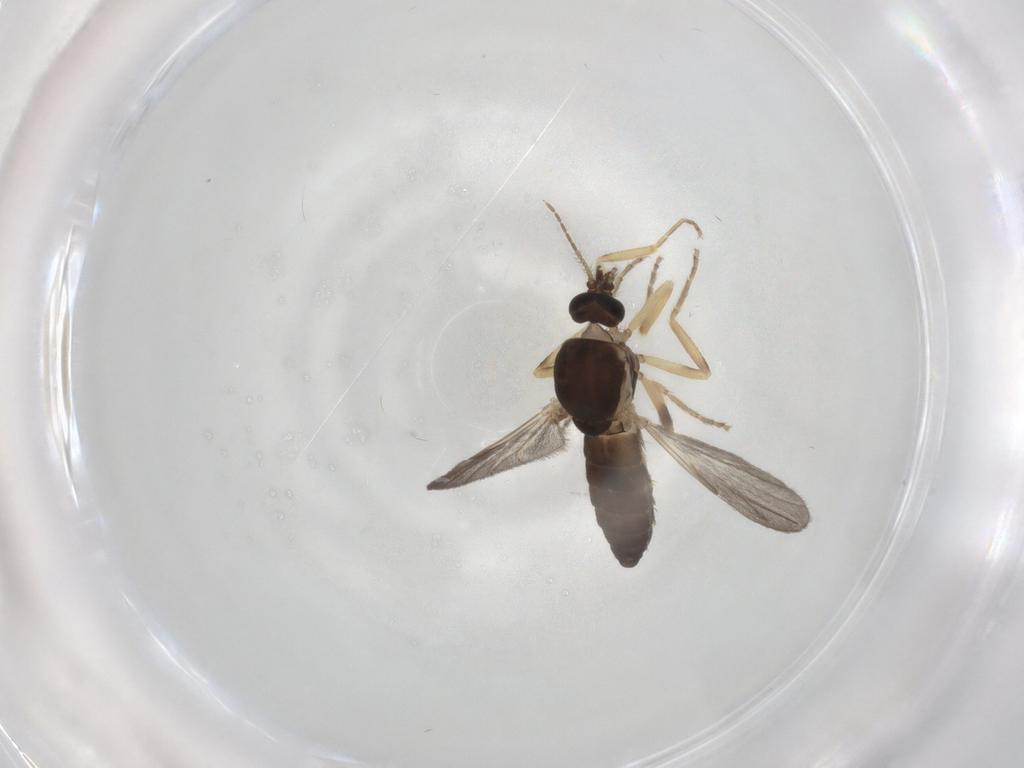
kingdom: Animalia
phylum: Arthropoda
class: Insecta
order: Diptera
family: Ceratopogonidae
